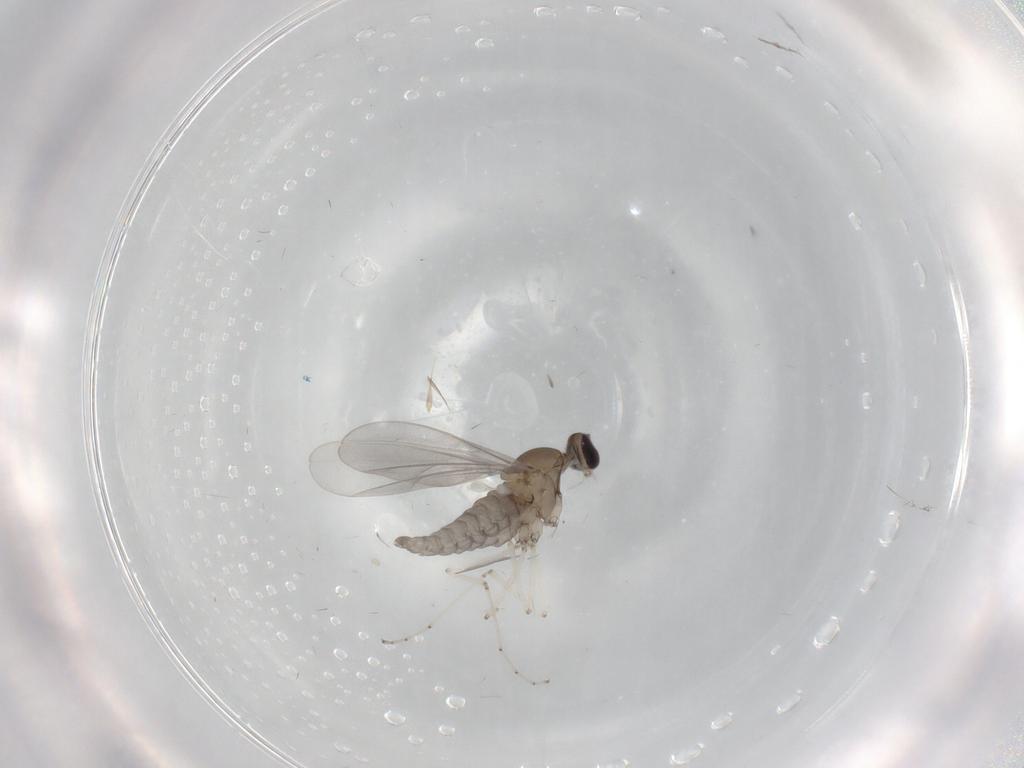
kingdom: Animalia
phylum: Arthropoda
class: Insecta
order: Diptera
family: Cecidomyiidae
